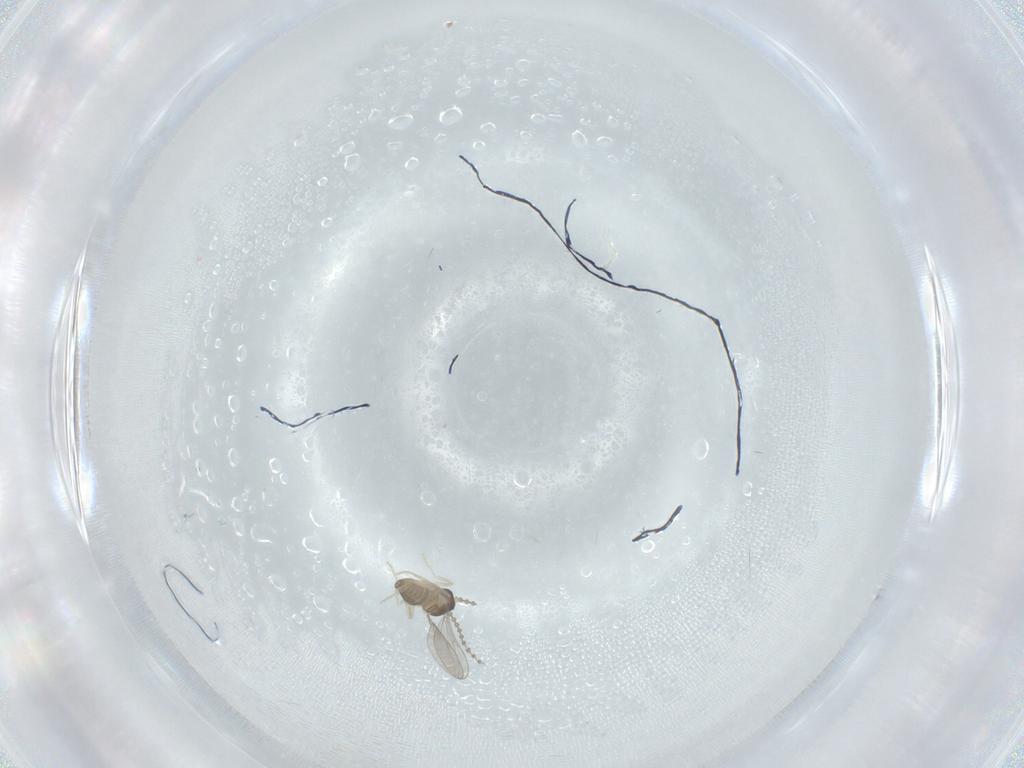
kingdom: Animalia
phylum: Arthropoda
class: Insecta
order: Diptera
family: Cecidomyiidae
